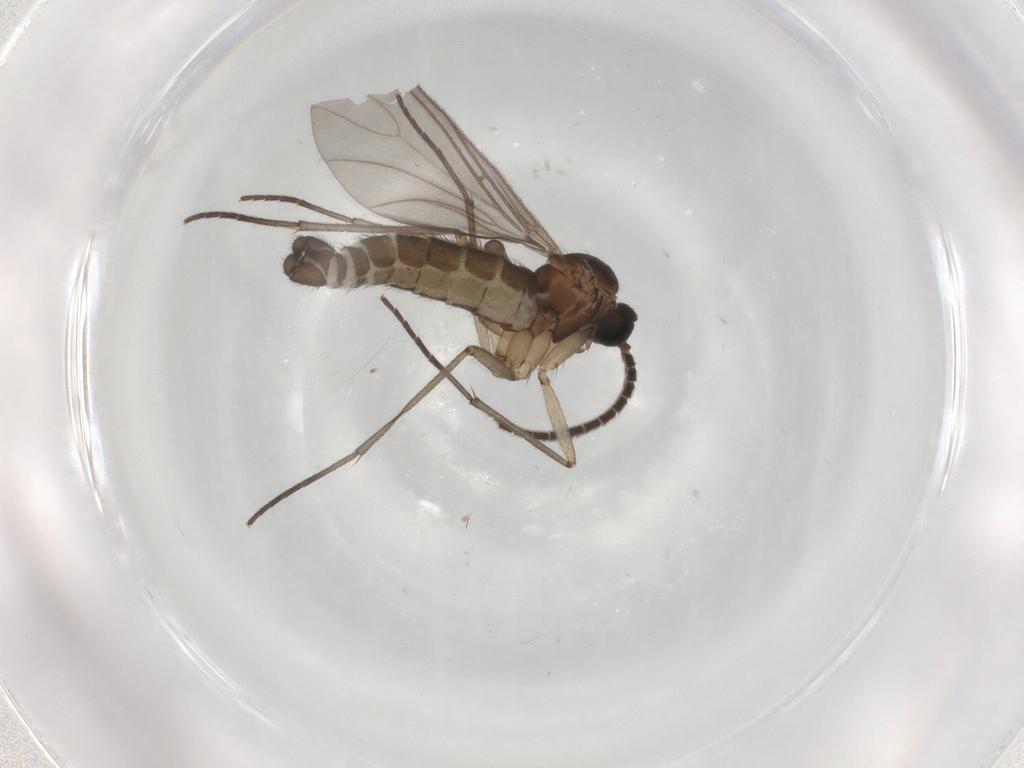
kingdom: Animalia
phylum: Arthropoda
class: Insecta
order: Diptera
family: Sciaridae
